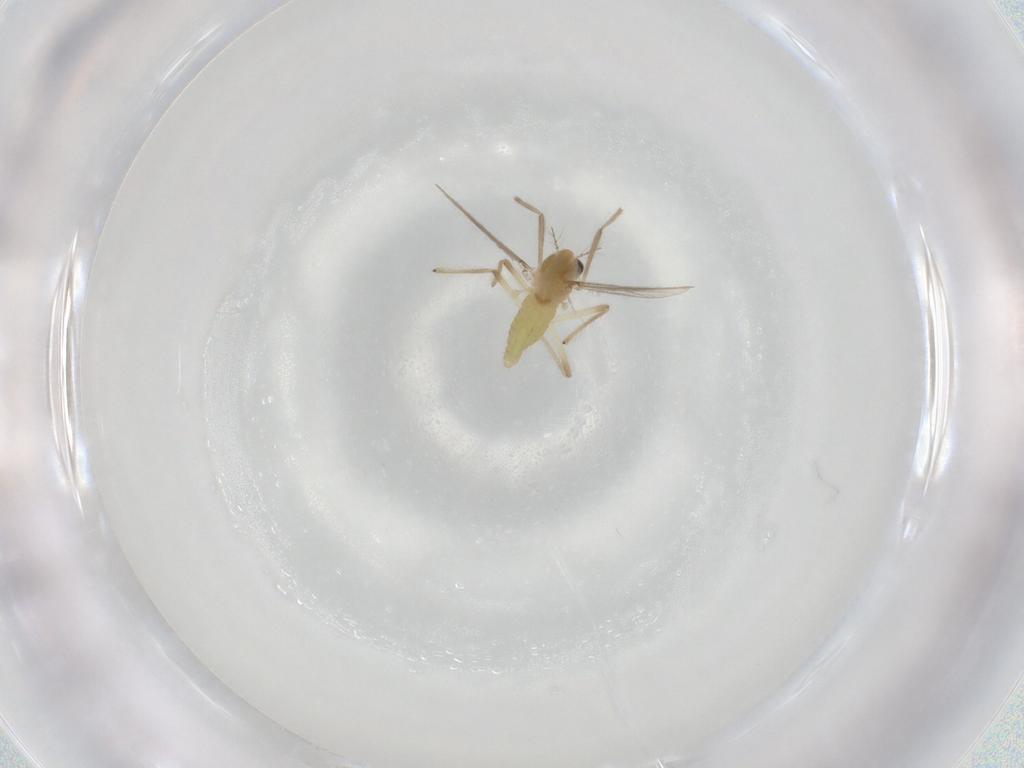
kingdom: Animalia
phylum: Arthropoda
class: Insecta
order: Diptera
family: Chironomidae
